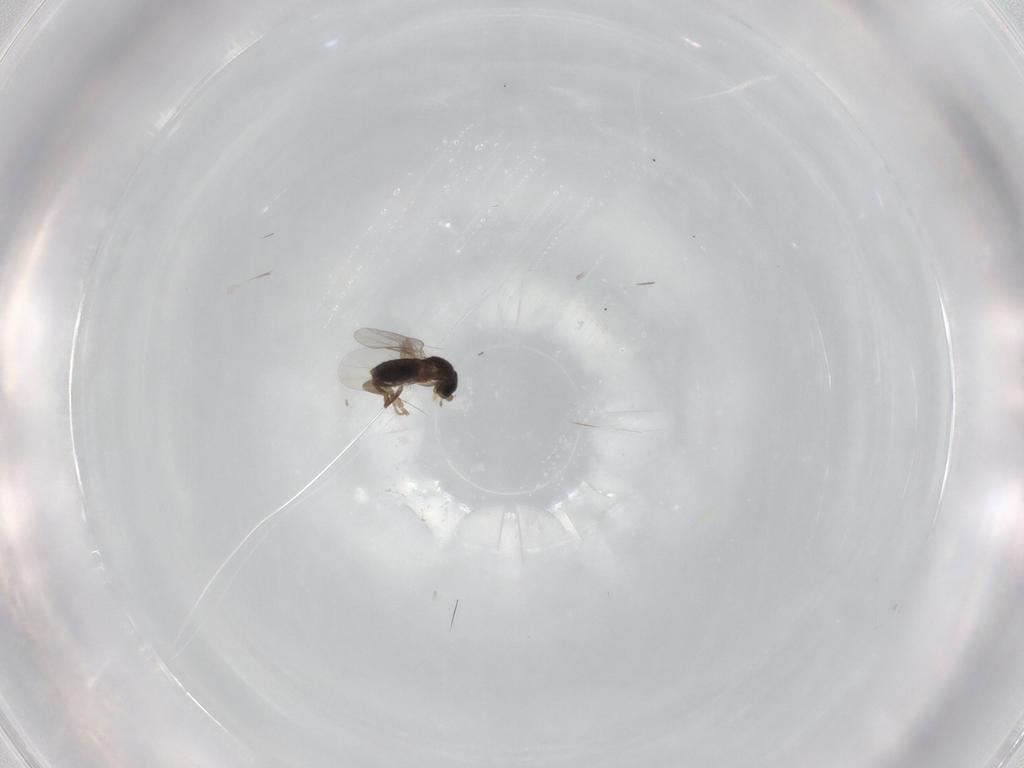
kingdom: Animalia
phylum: Arthropoda
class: Insecta
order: Diptera
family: Phoridae
